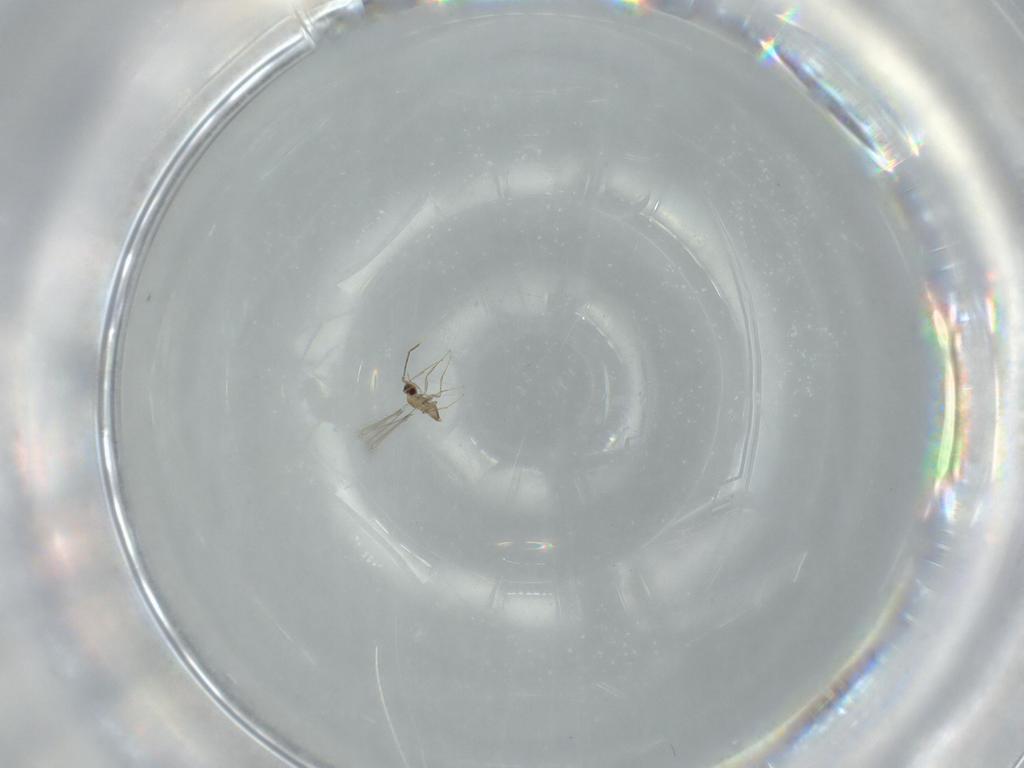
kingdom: Animalia
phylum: Arthropoda
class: Insecta
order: Hymenoptera
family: Mymaridae
